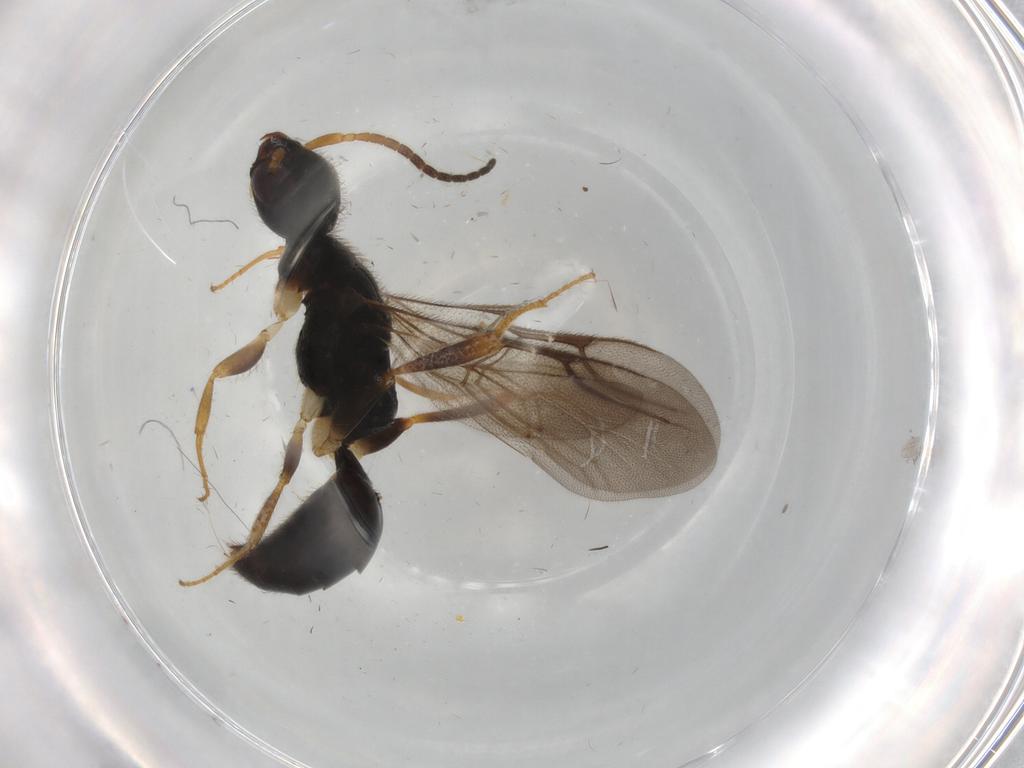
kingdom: Animalia
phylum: Arthropoda
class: Insecta
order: Hymenoptera
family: Bethylidae
